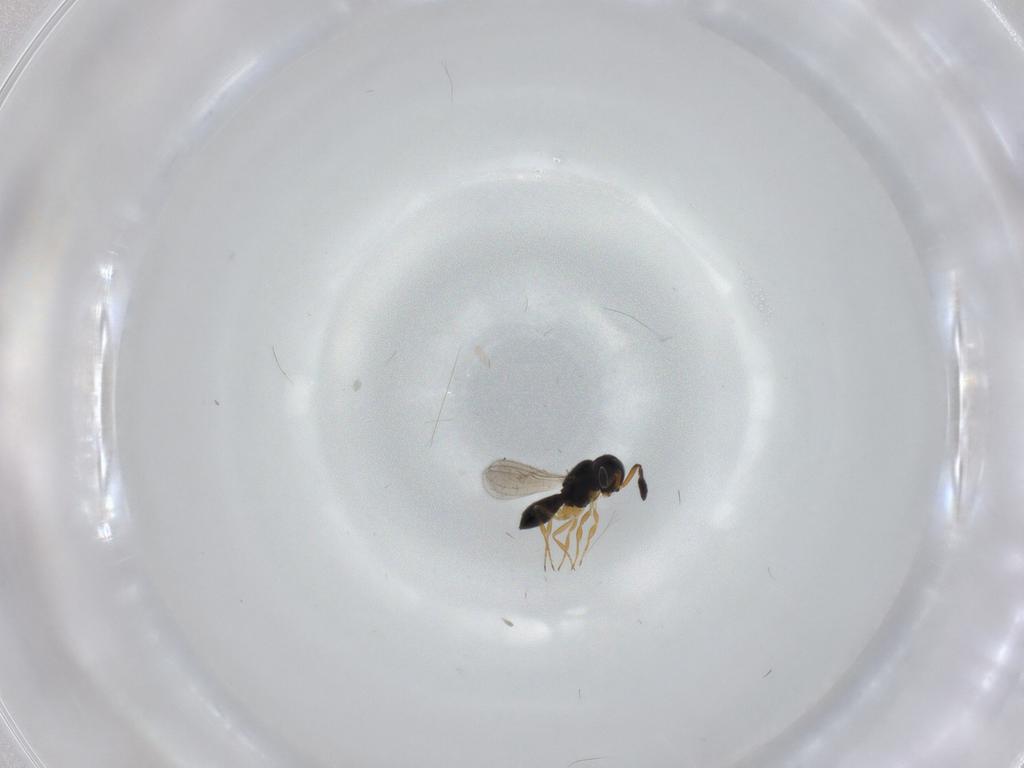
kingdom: Animalia
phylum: Arthropoda
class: Insecta
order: Hymenoptera
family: Scelionidae
